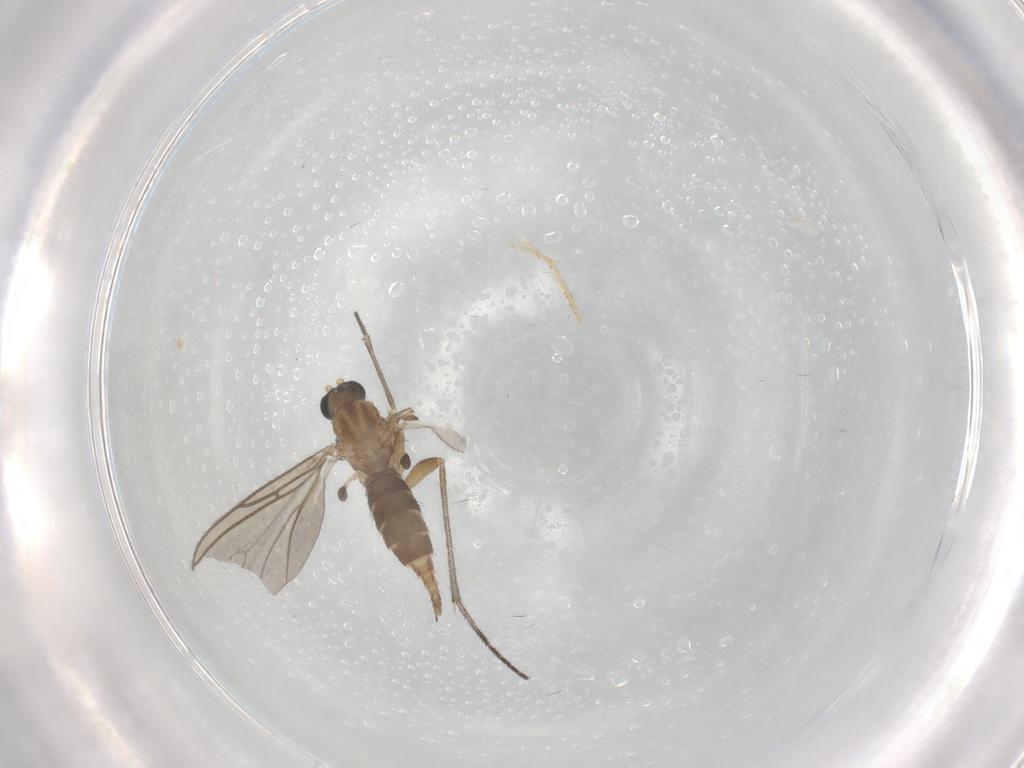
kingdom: Animalia
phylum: Arthropoda
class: Insecta
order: Diptera
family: Sciaridae
